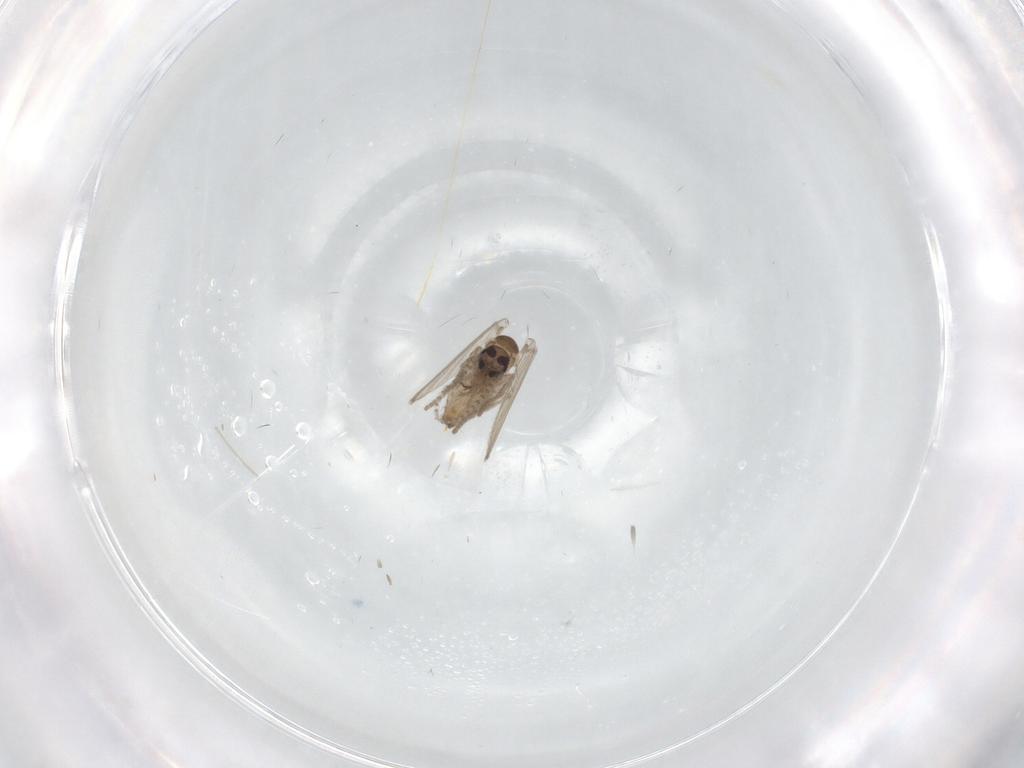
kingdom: Animalia
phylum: Arthropoda
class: Insecta
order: Diptera
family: Psychodidae
